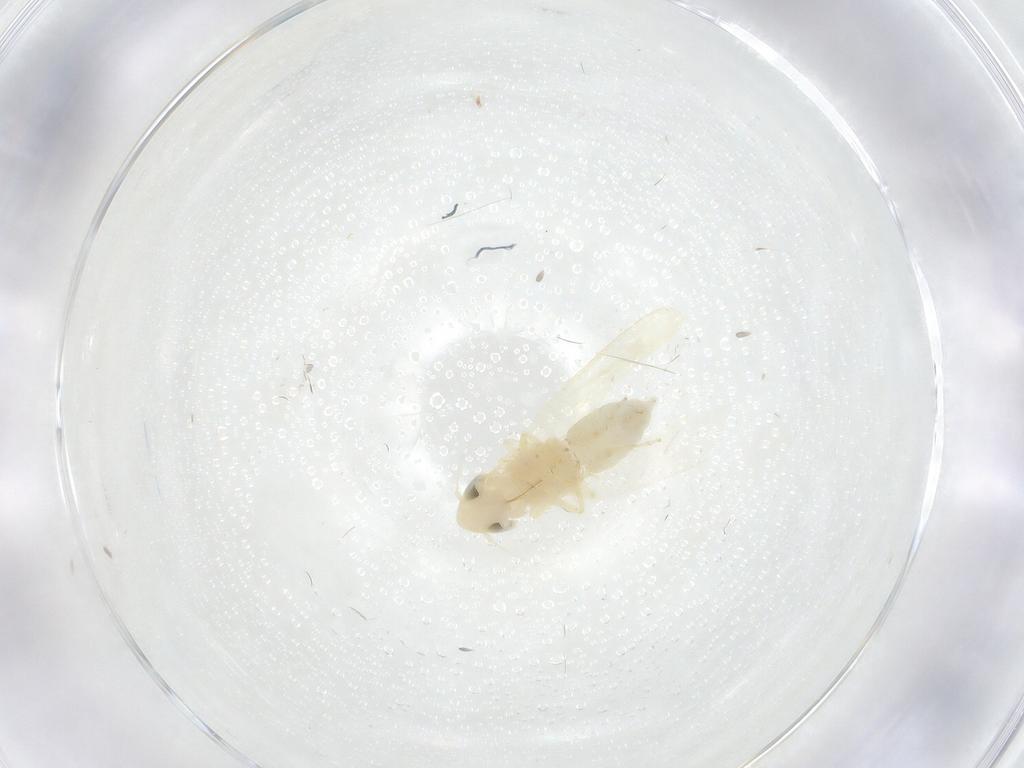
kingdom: Animalia
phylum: Arthropoda
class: Insecta
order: Hemiptera
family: Cicadellidae
